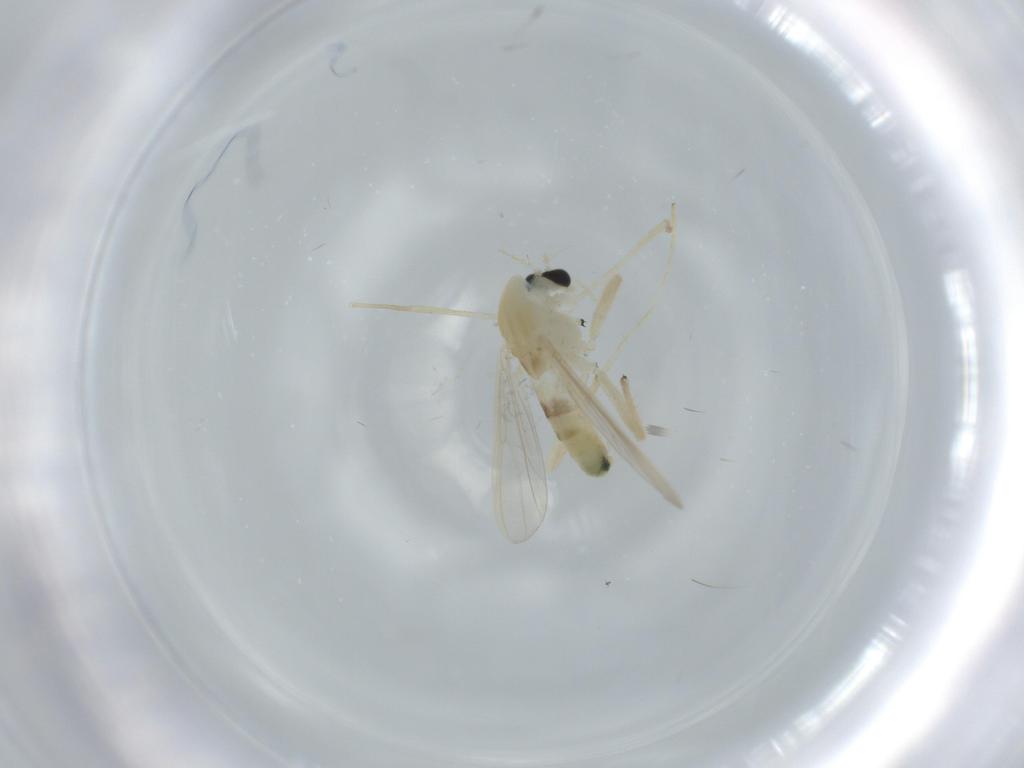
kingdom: Animalia
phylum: Arthropoda
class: Insecta
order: Diptera
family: Chironomidae
